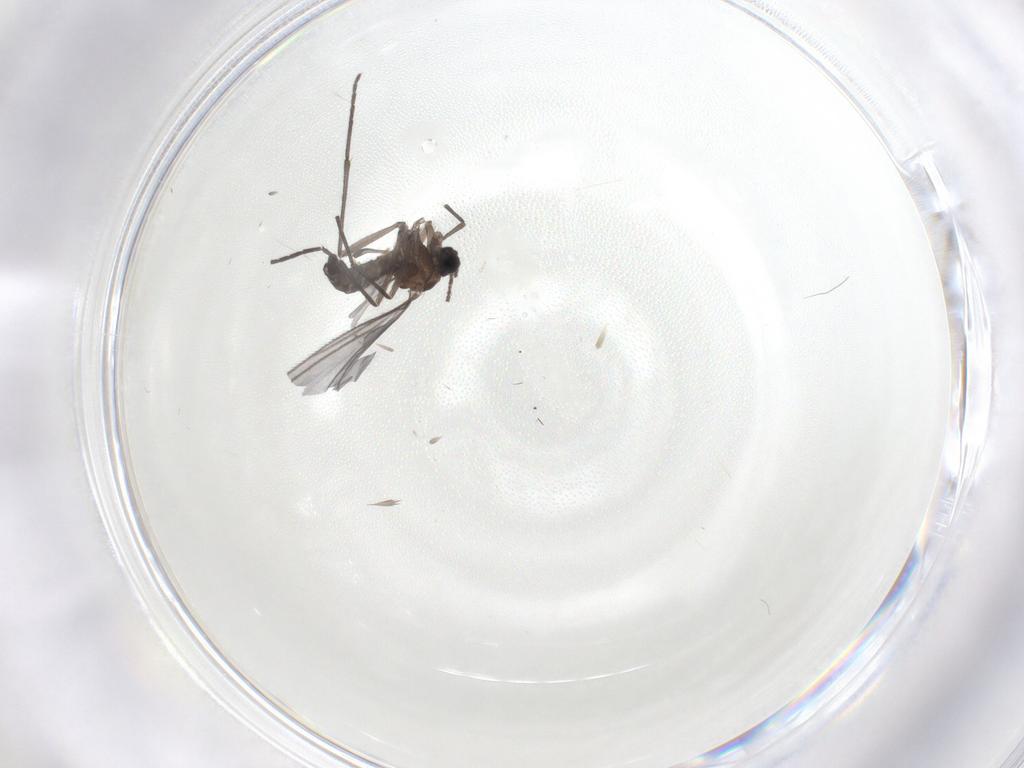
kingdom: Animalia
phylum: Arthropoda
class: Insecta
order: Diptera
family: Sciaridae
